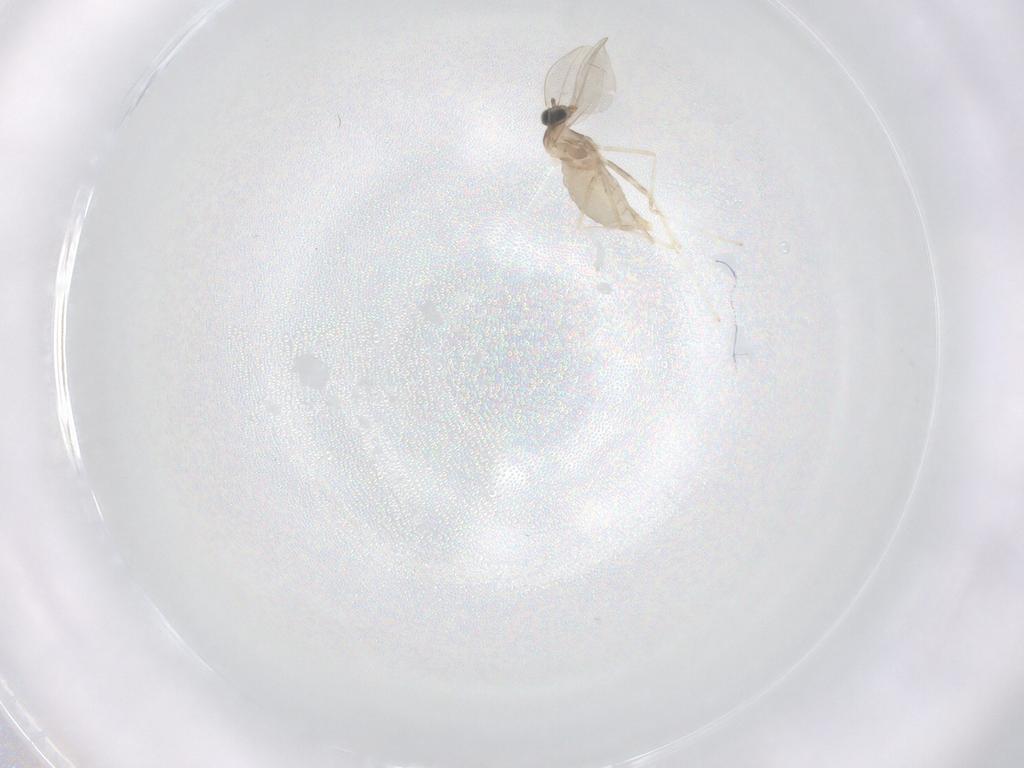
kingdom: Animalia
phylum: Arthropoda
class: Insecta
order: Diptera
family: Cecidomyiidae
